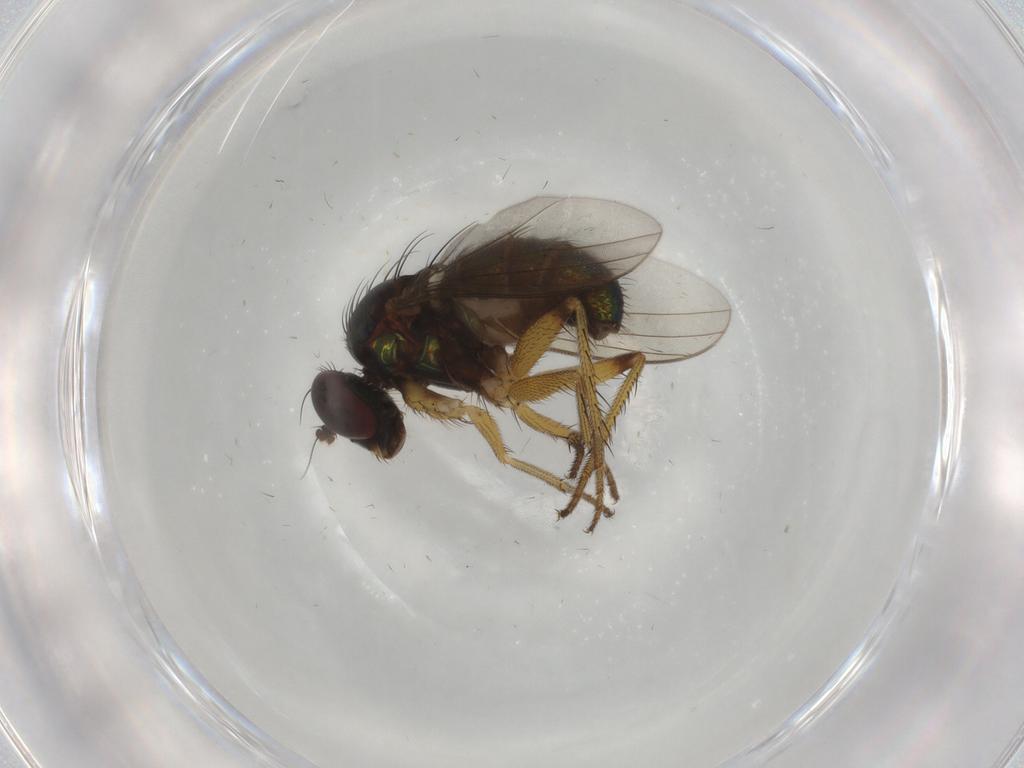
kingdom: Animalia
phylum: Arthropoda
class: Insecta
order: Diptera
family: Dolichopodidae
